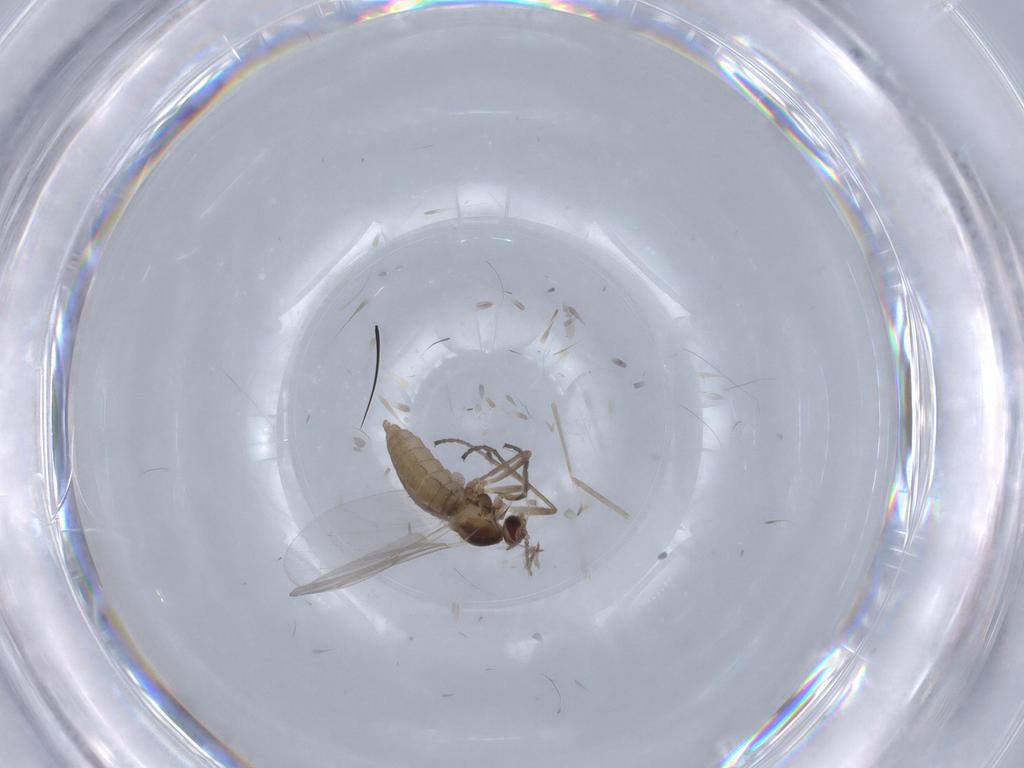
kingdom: Animalia
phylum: Arthropoda
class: Insecta
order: Diptera
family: Cecidomyiidae
